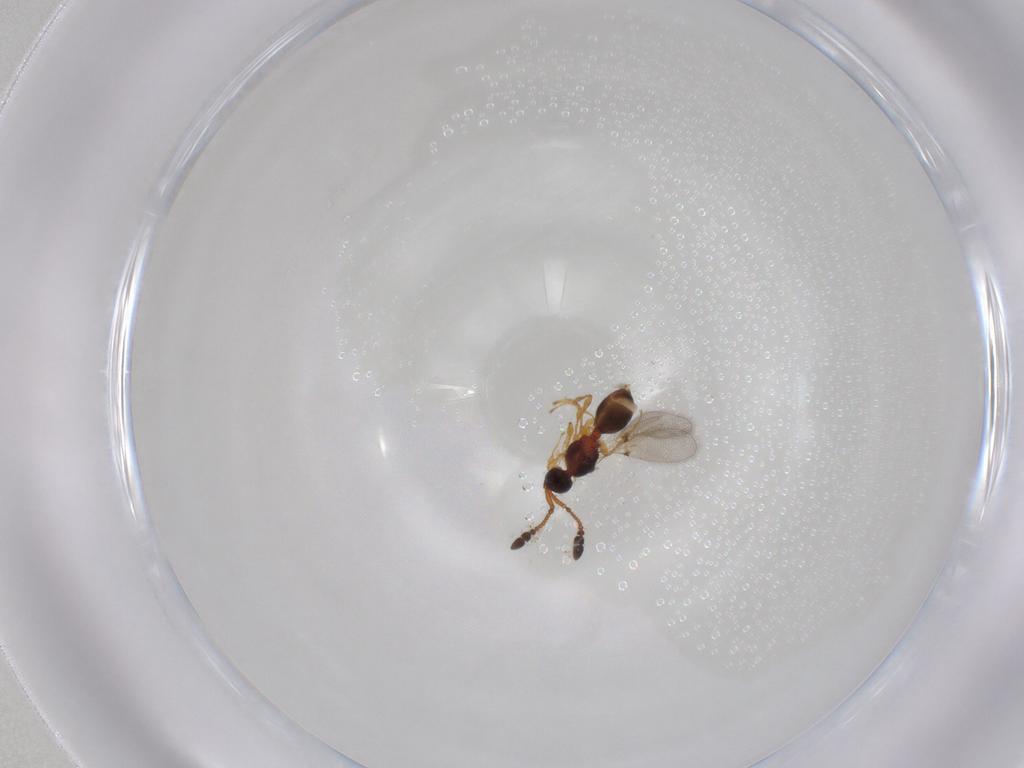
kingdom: Animalia
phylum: Arthropoda
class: Insecta
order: Hymenoptera
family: Diapriidae
